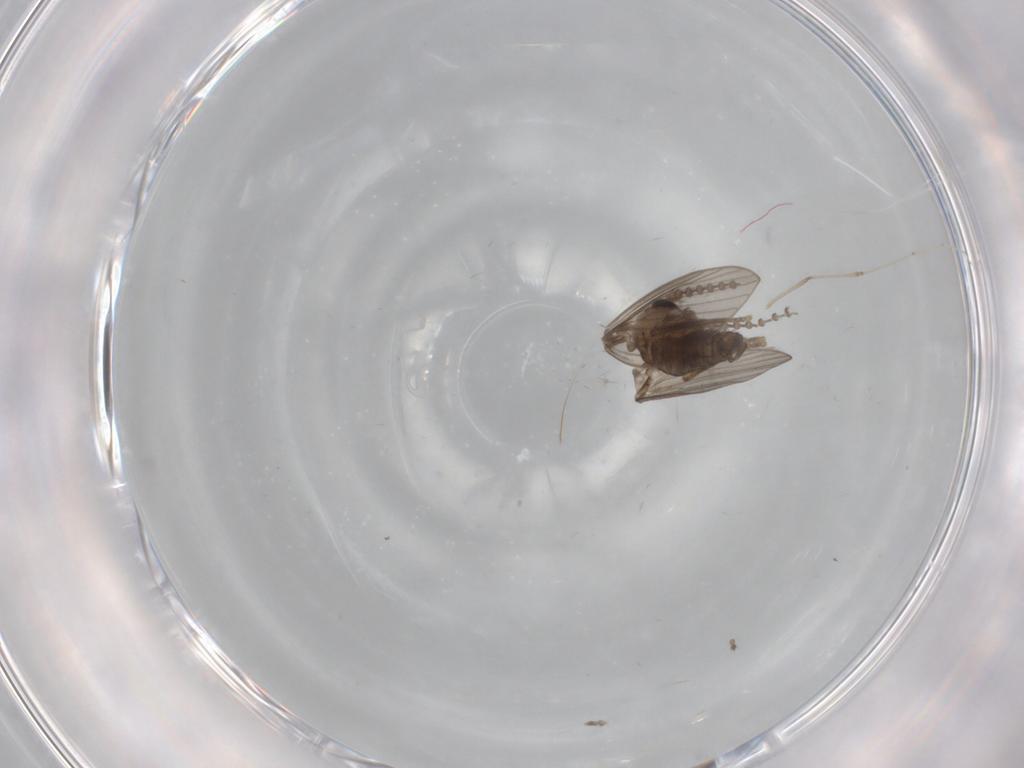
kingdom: Animalia
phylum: Arthropoda
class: Insecta
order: Diptera
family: Psychodidae
